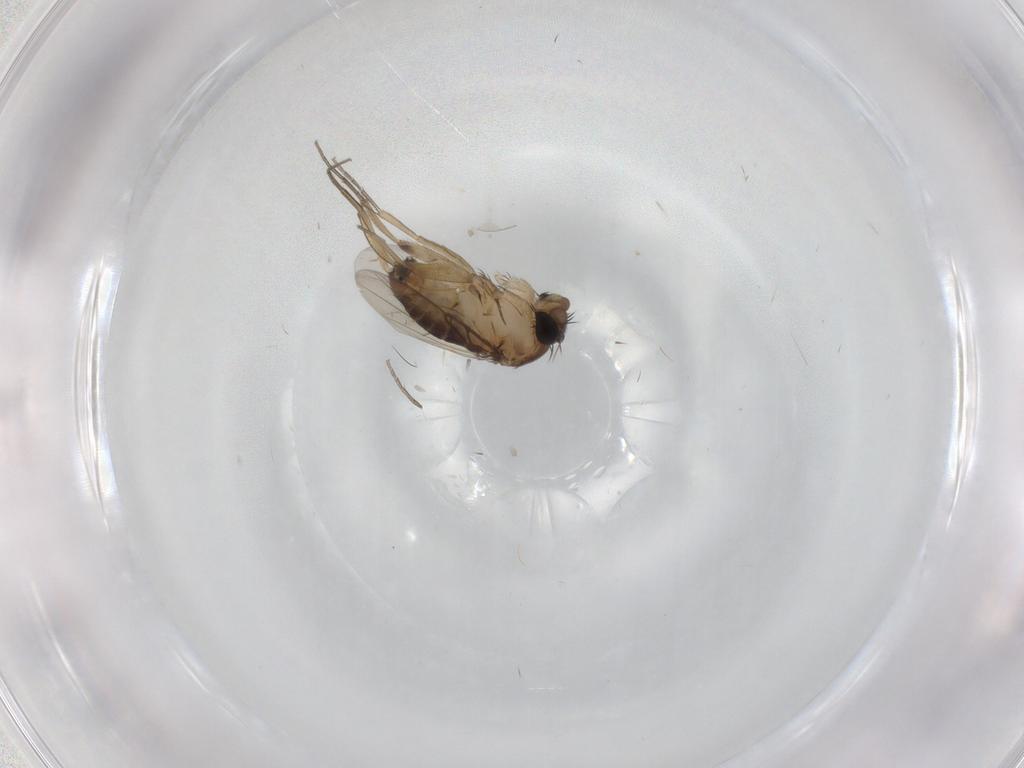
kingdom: Animalia
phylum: Arthropoda
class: Insecta
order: Diptera
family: Phoridae
